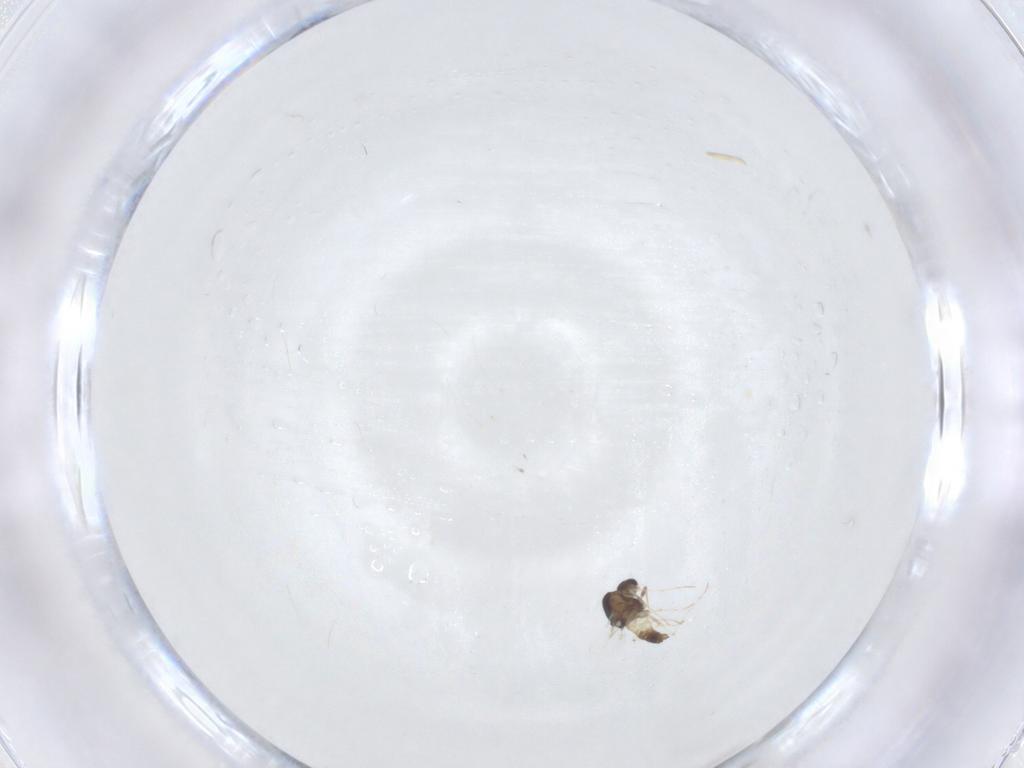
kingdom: Animalia
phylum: Arthropoda
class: Insecta
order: Diptera
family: Chironomidae
